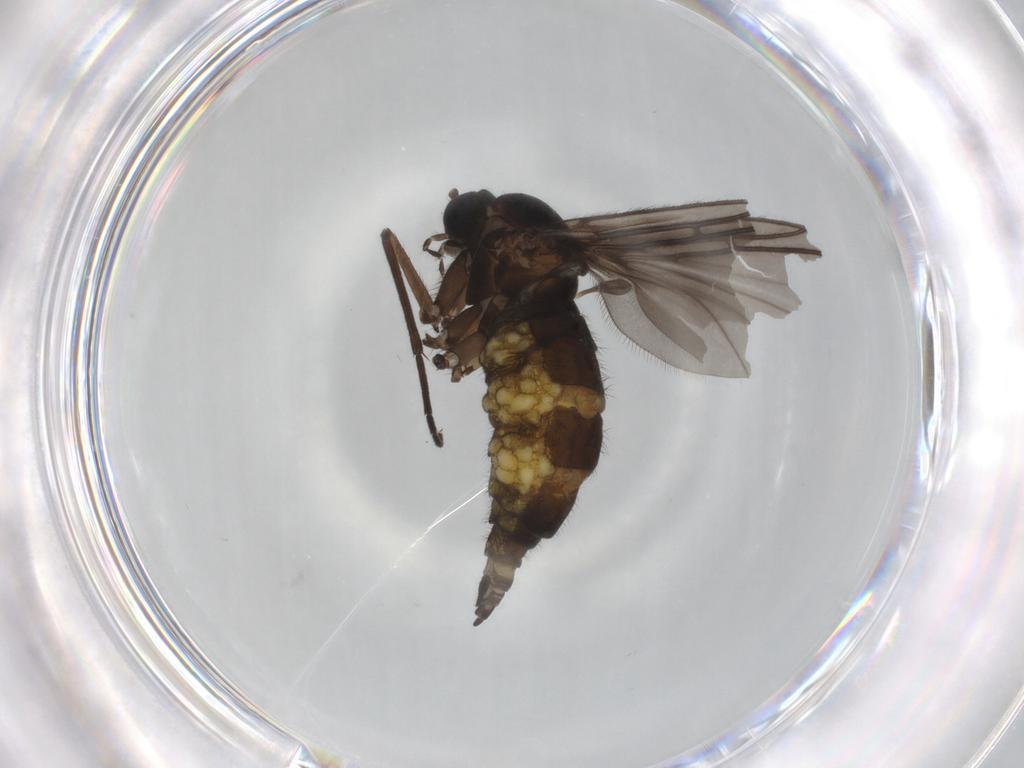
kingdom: Animalia
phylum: Arthropoda
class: Insecta
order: Diptera
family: Sciaridae
